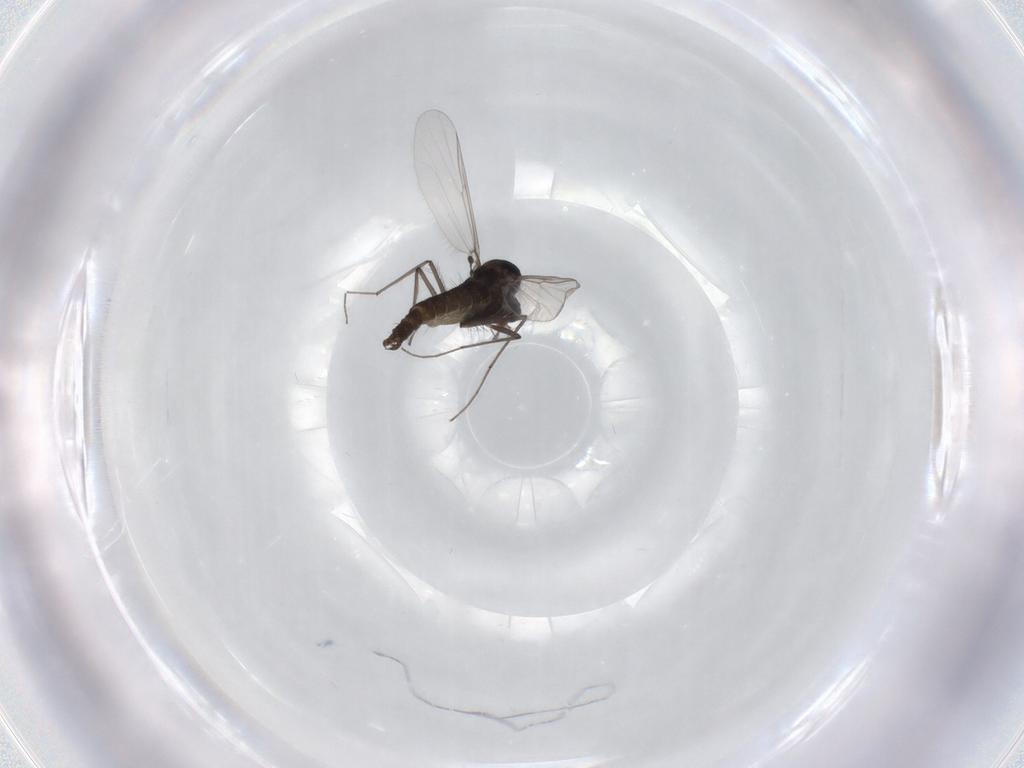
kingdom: Animalia
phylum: Arthropoda
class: Insecta
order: Diptera
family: Chironomidae
